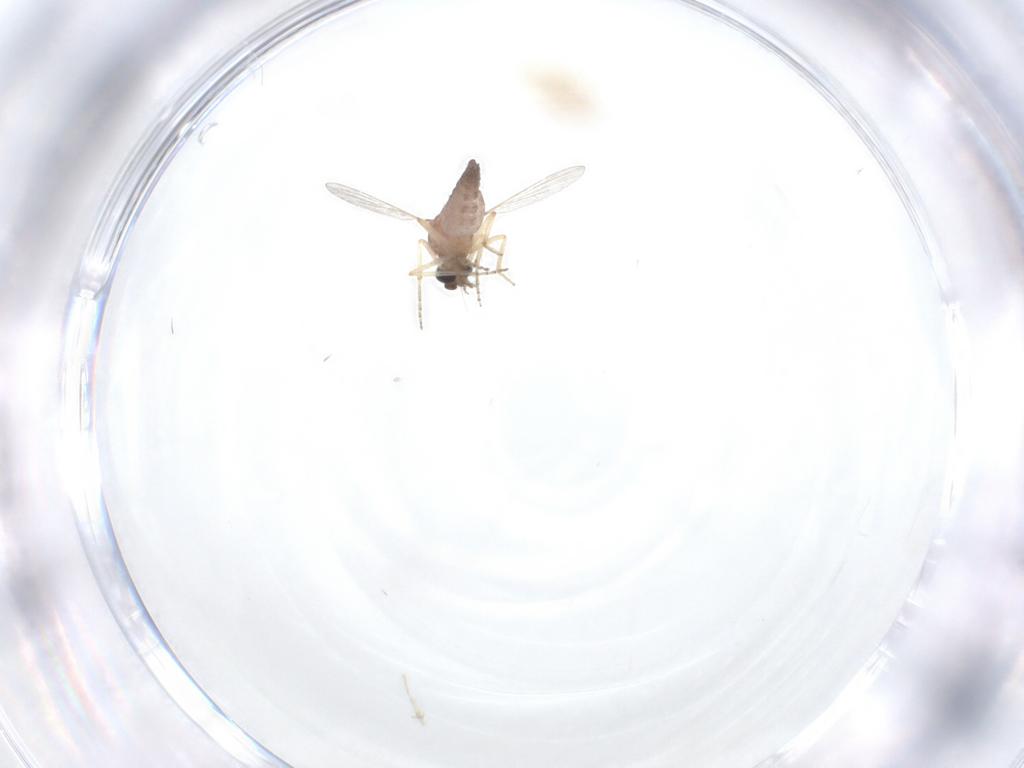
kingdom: Animalia
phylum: Arthropoda
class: Insecta
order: Diptera
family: Ceratopogonidae
